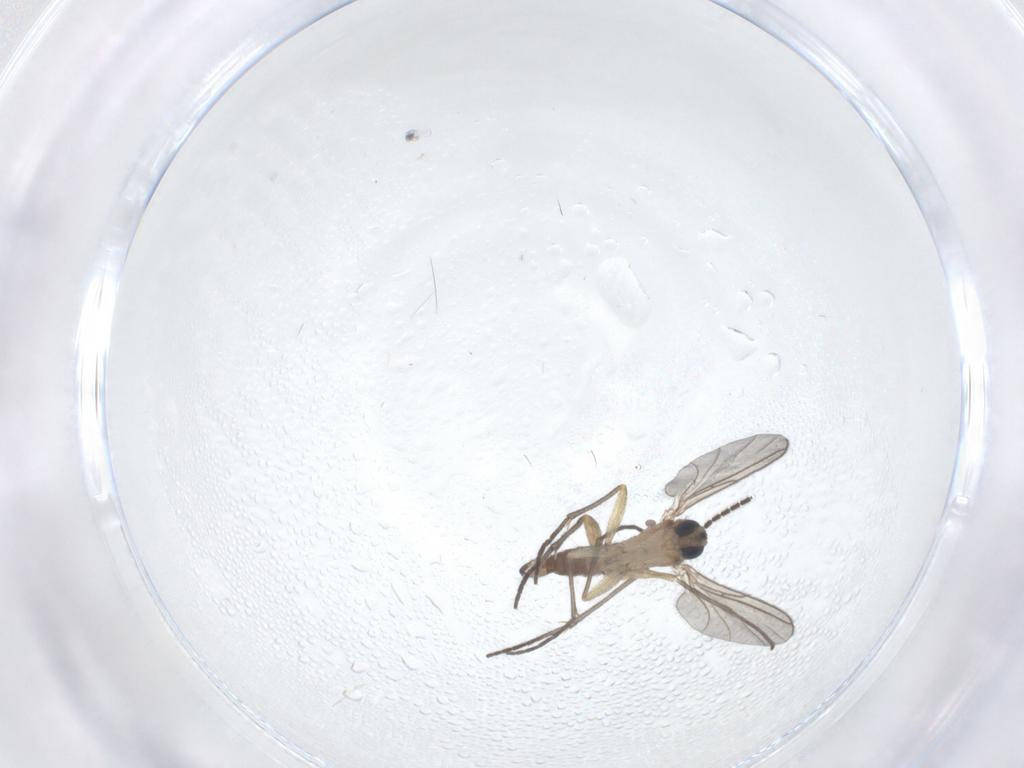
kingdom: Animalia
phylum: Arthropoda
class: Insecta
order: Diptera
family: Sciaridae
